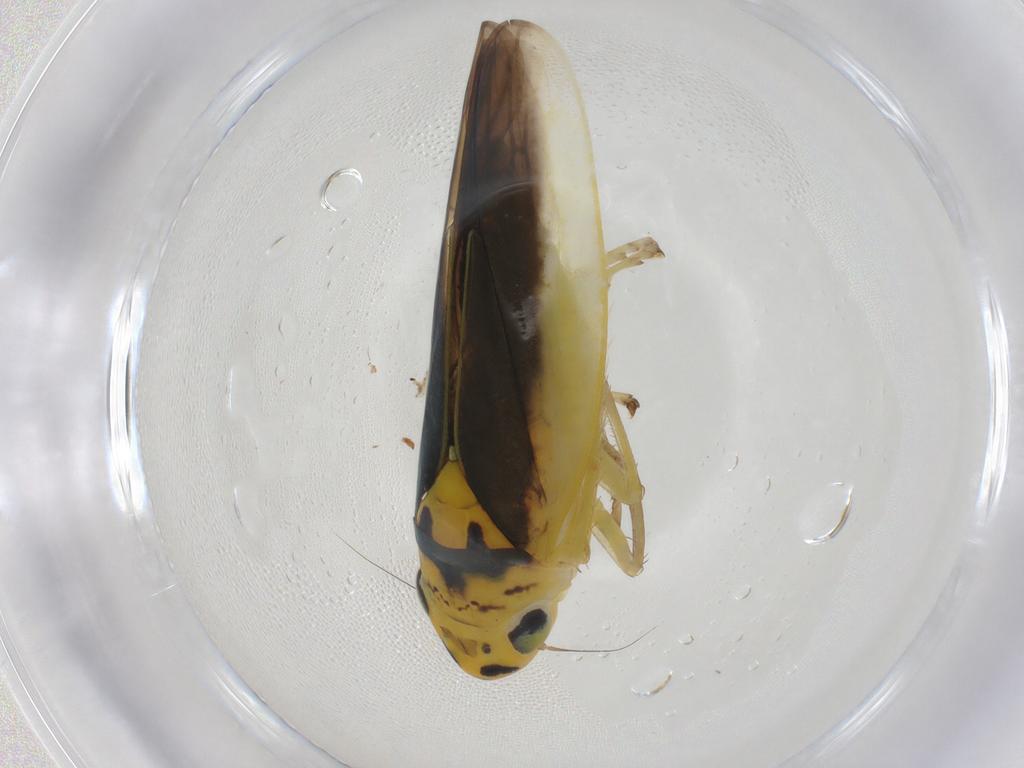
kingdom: Animalia
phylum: Arthropoda
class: Insecta
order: Hemiptera
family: Cicadellidae
